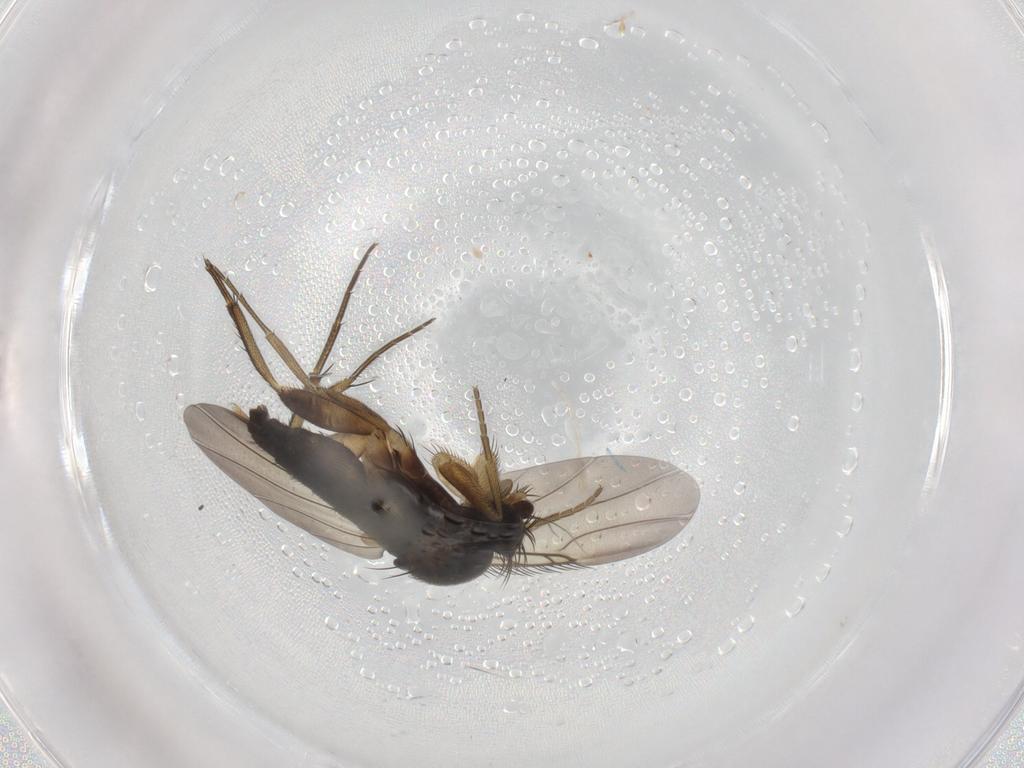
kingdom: Animalia
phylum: Arthropoda
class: Insecta
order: Diptera
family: Phoridae
